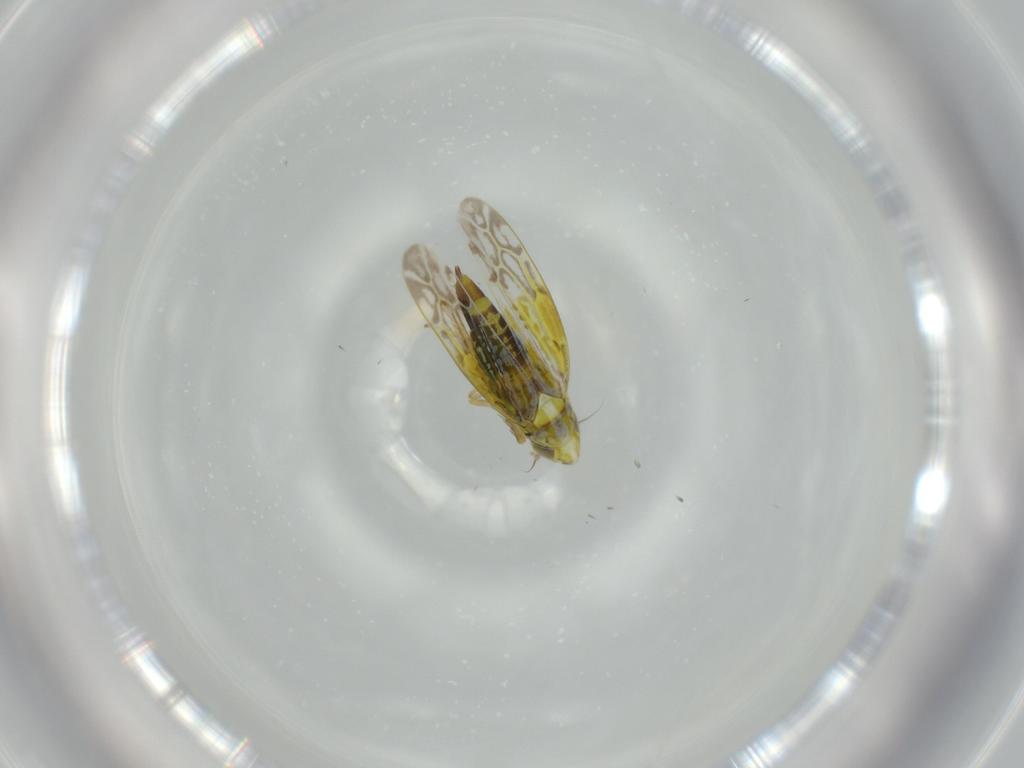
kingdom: Animalia
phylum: Arthropoda
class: Insecta
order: Hemiptera
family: Cicadellidae
